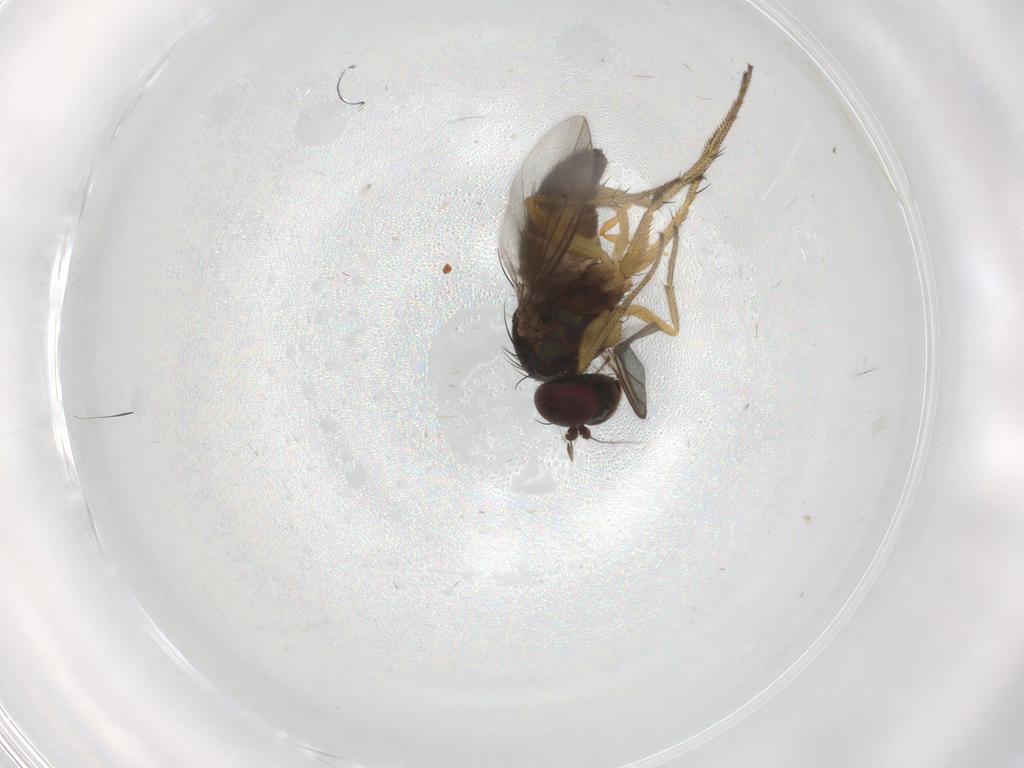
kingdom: Animalia
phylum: Arthropoda
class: Insecta
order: Diptera
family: Dolichopodidae
